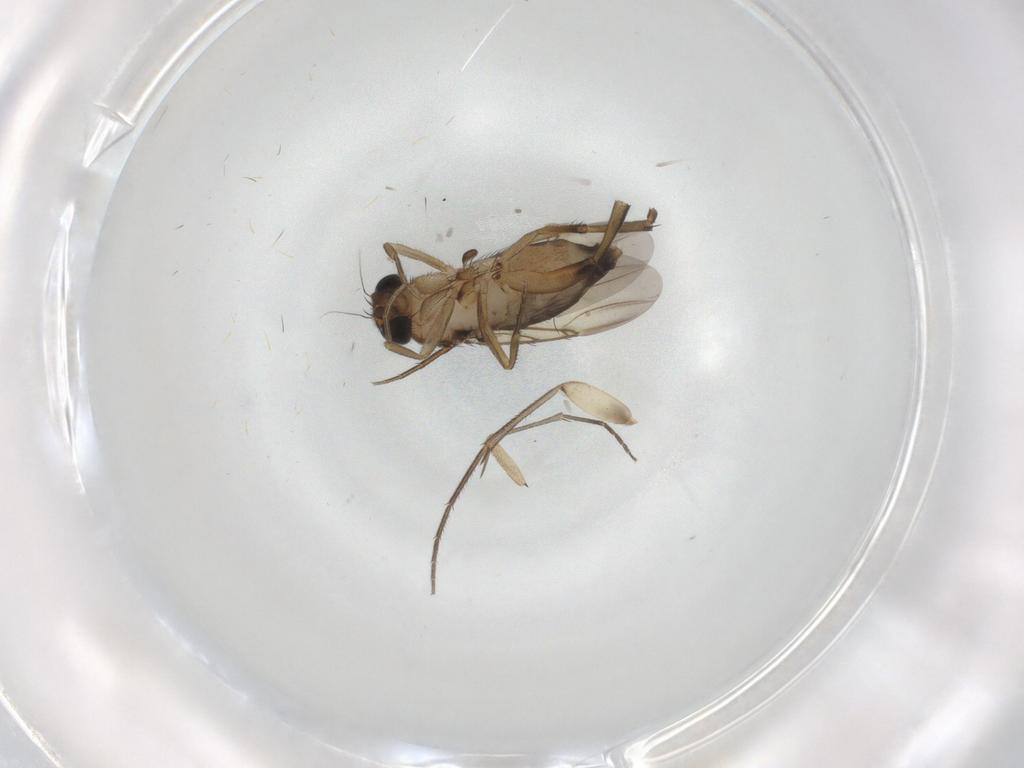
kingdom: Animalia
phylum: Arthropoda
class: Insecta
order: Diptera
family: Phoridae
